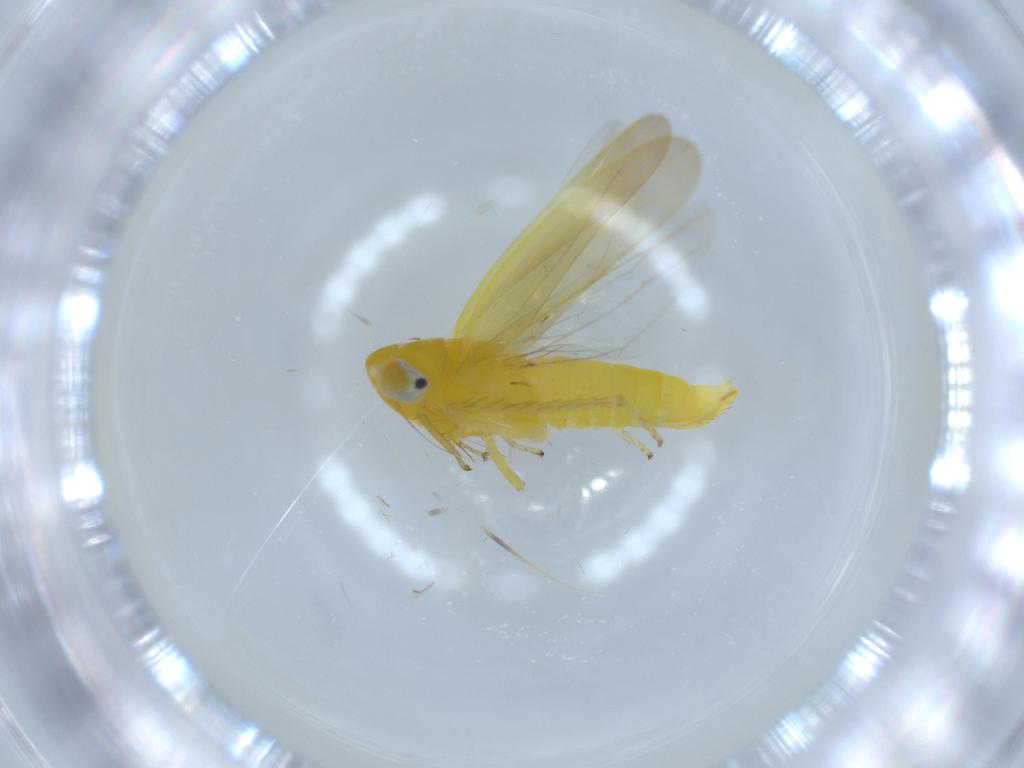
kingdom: Animalia
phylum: Arthropoda
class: Insecta
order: Hemiptera
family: Cicadellidae
